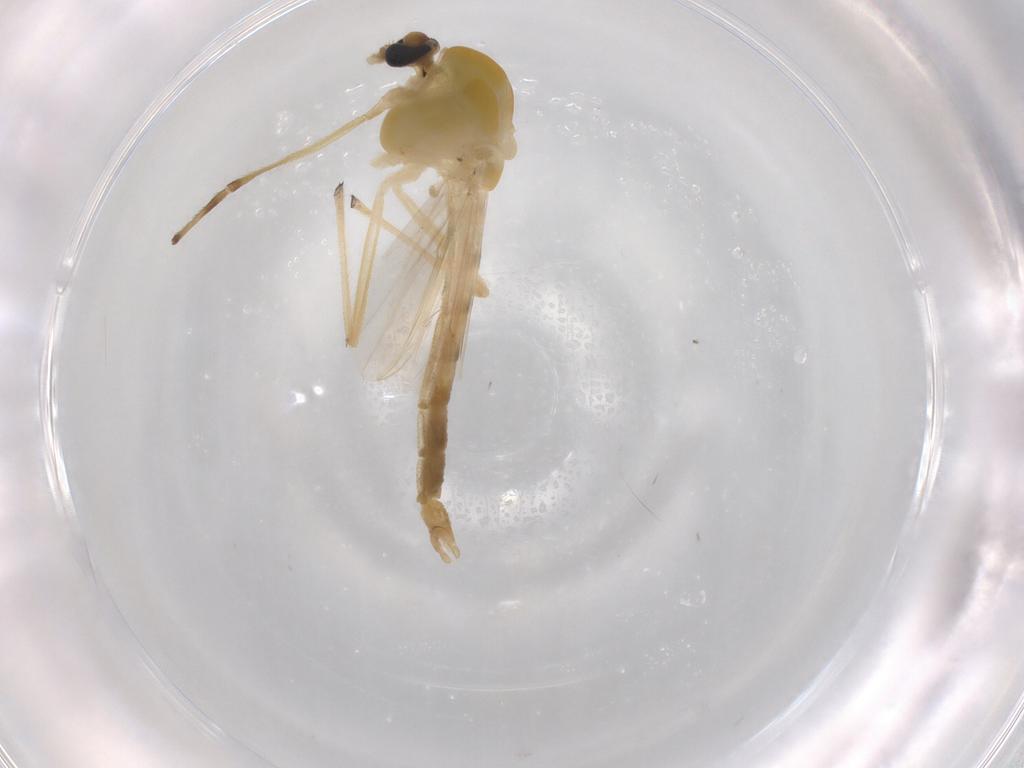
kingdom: Animalia
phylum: Arthropoda
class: Insecta
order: Diptera
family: Chironomidae
